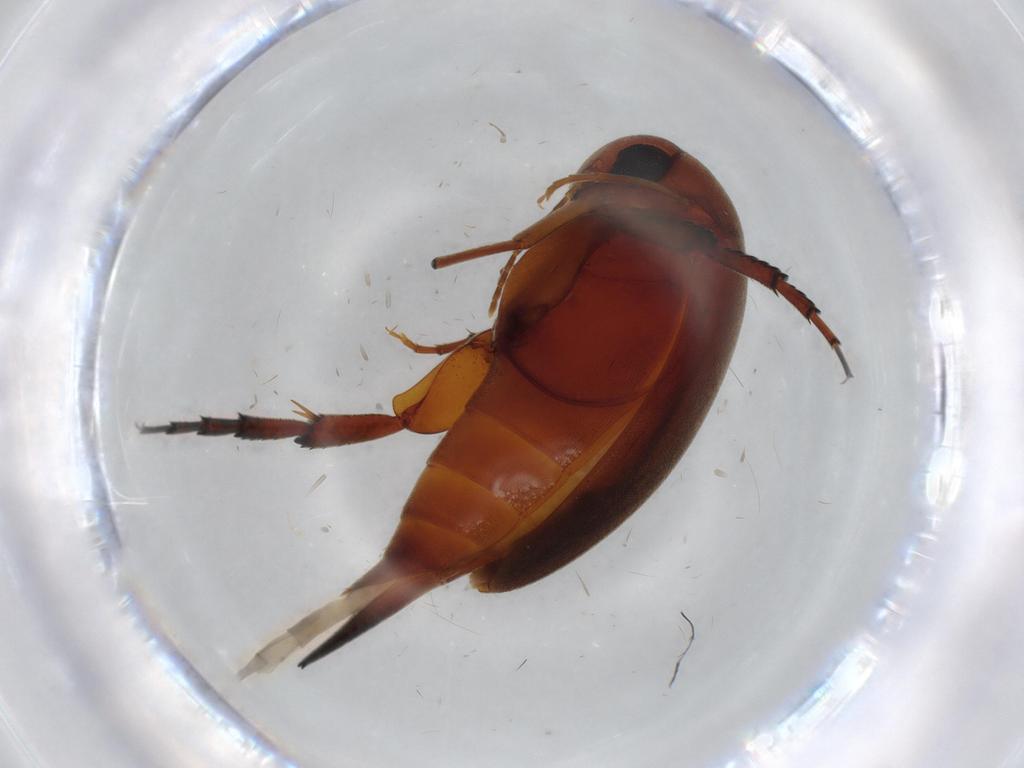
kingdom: Animalia
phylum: Arthropoda
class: Insecta
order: Coleoptera
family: Mordellidae
